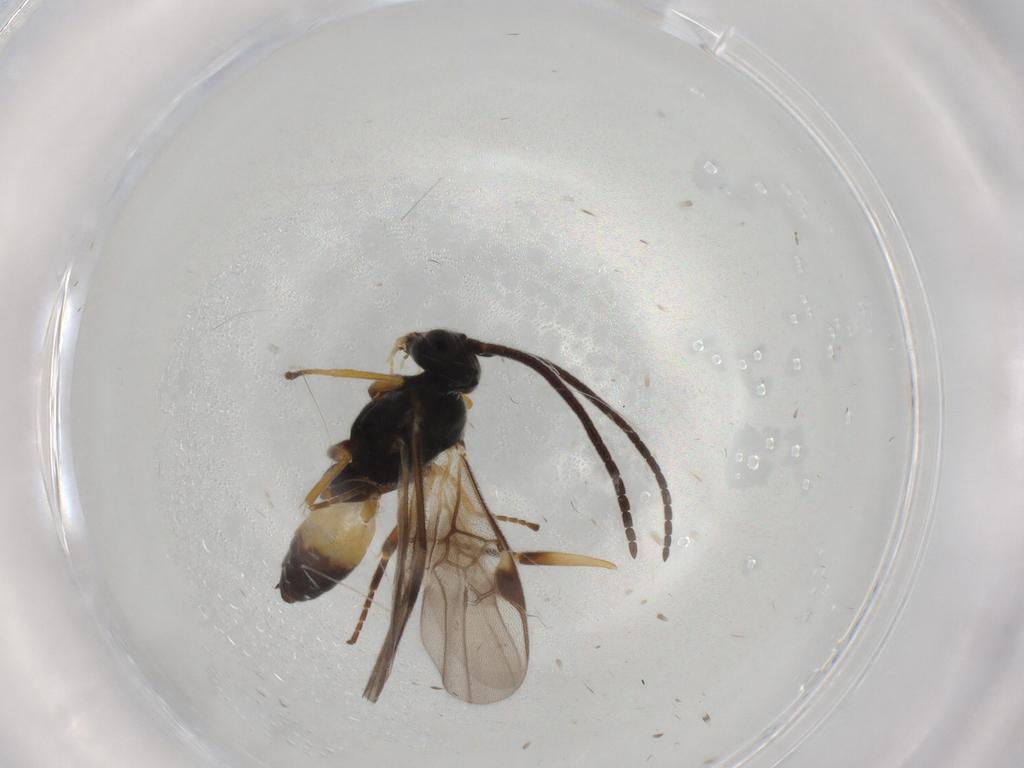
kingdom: Animalia
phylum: Arthropoda
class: Insecta
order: Hymenoptera
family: Braconidae
